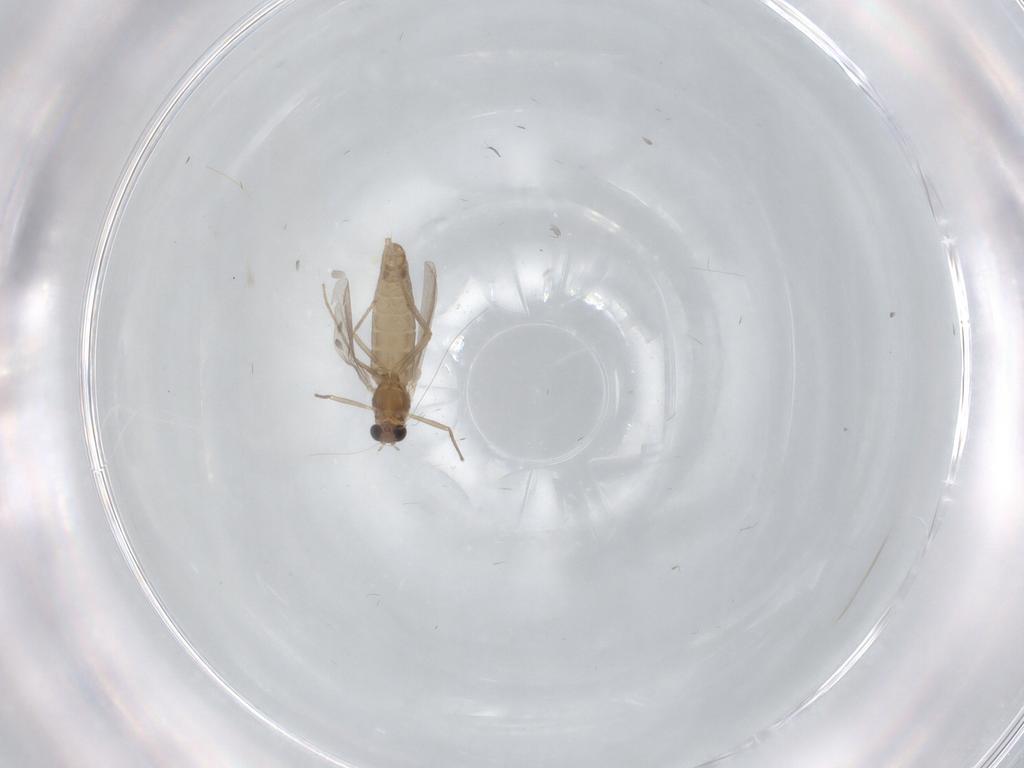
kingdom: Animalia
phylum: Arthropoda
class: Insecta
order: Diptera
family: Chironomidae
